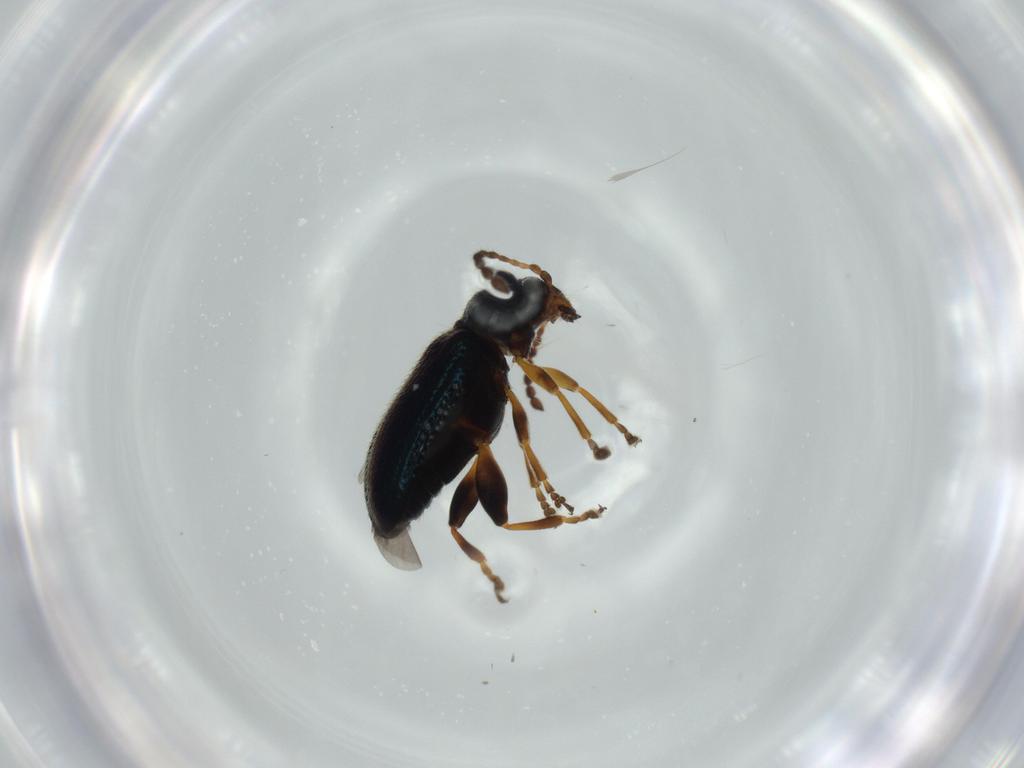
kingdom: Animalia
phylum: Arthropoda
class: Insecta
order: Coleoptera
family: Chrysomelidae
